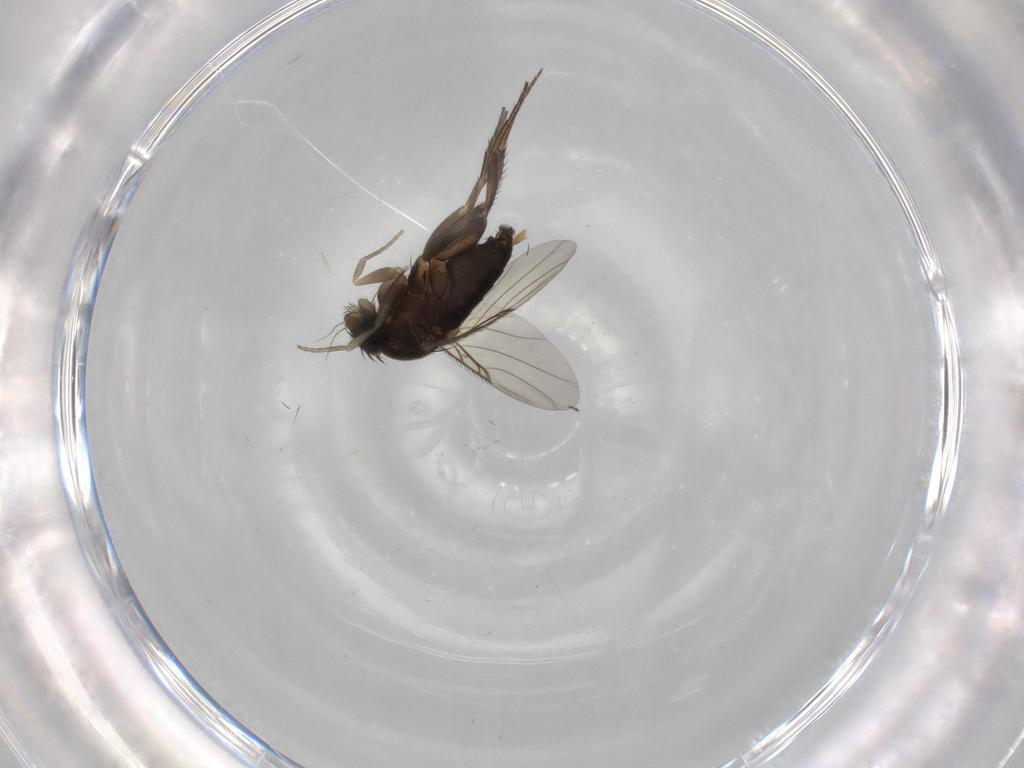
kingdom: Animalia
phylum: Arthropoda
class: Insecta
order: Diptera
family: Phoridae
